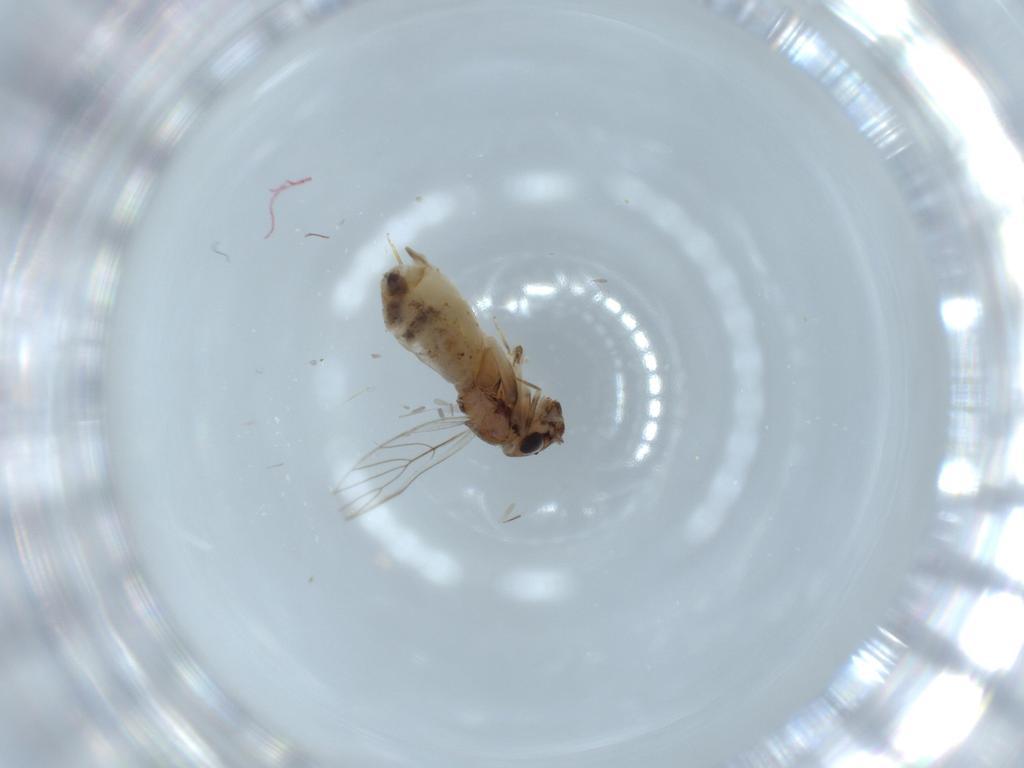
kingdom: Animalia
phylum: Arthropoda
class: Insecta
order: Psocodea
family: Lepidopsocidae
